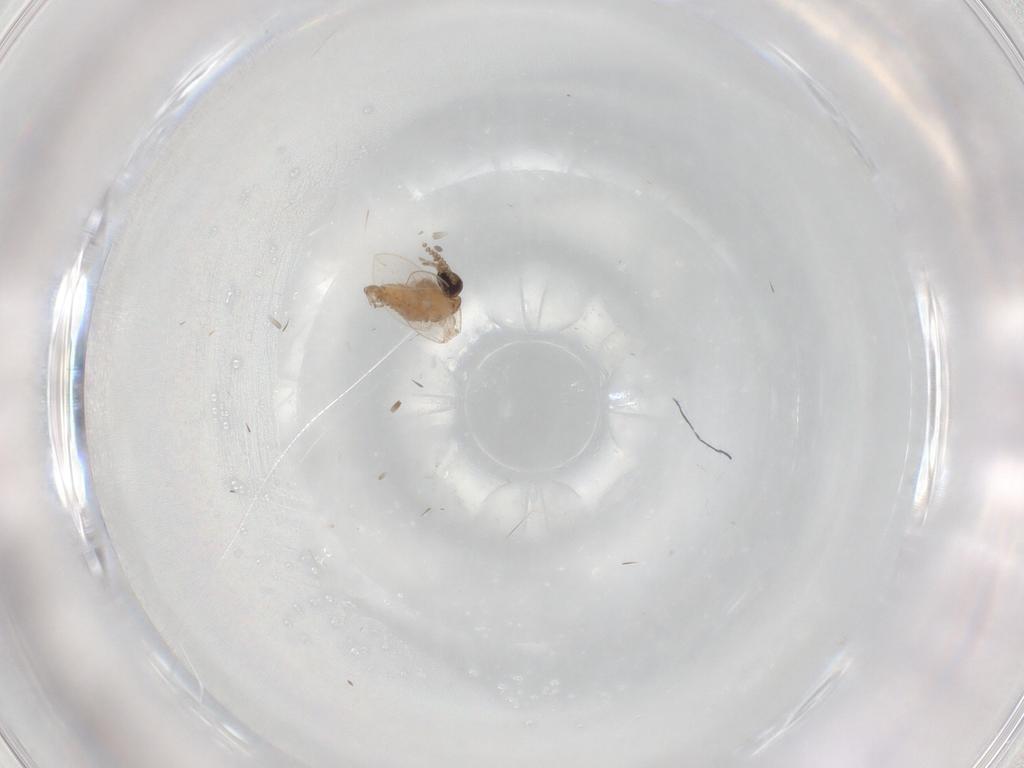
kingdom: Animalia
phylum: Arthropoda
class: Insecta
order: Diptera
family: Psychodidae
